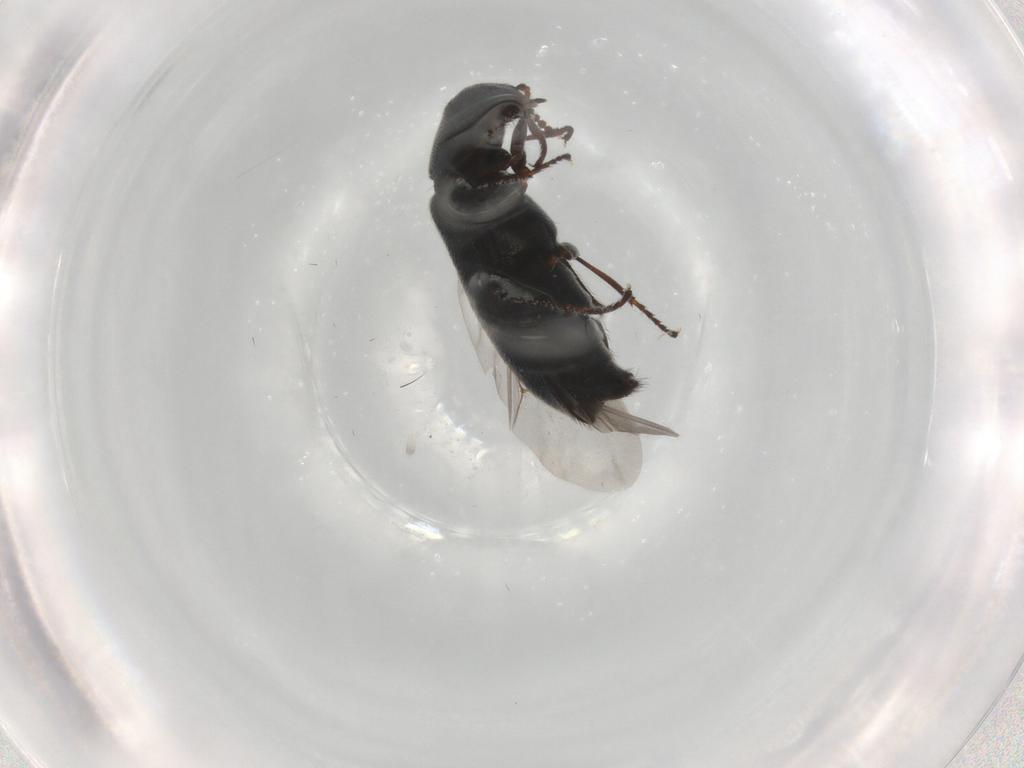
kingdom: Animalia
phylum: Arthropoda
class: Insecta
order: Coleoptera
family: Melyridae
